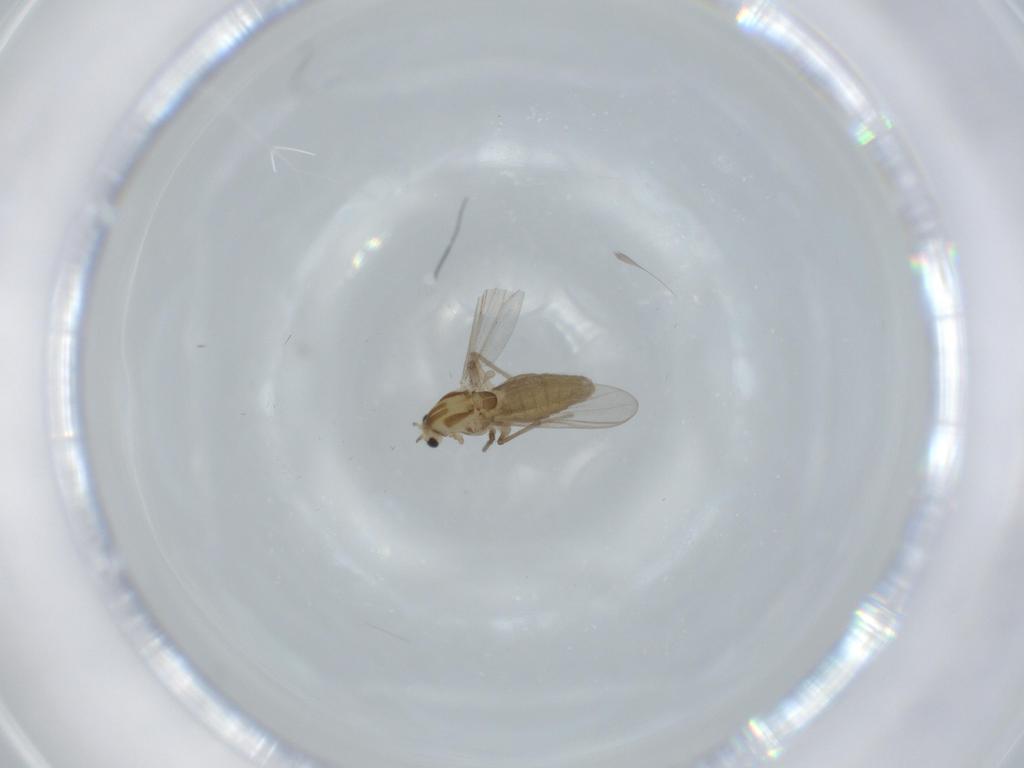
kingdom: Animalia
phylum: Arthropoda
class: Insecta
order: Diptera
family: Chironomidae
